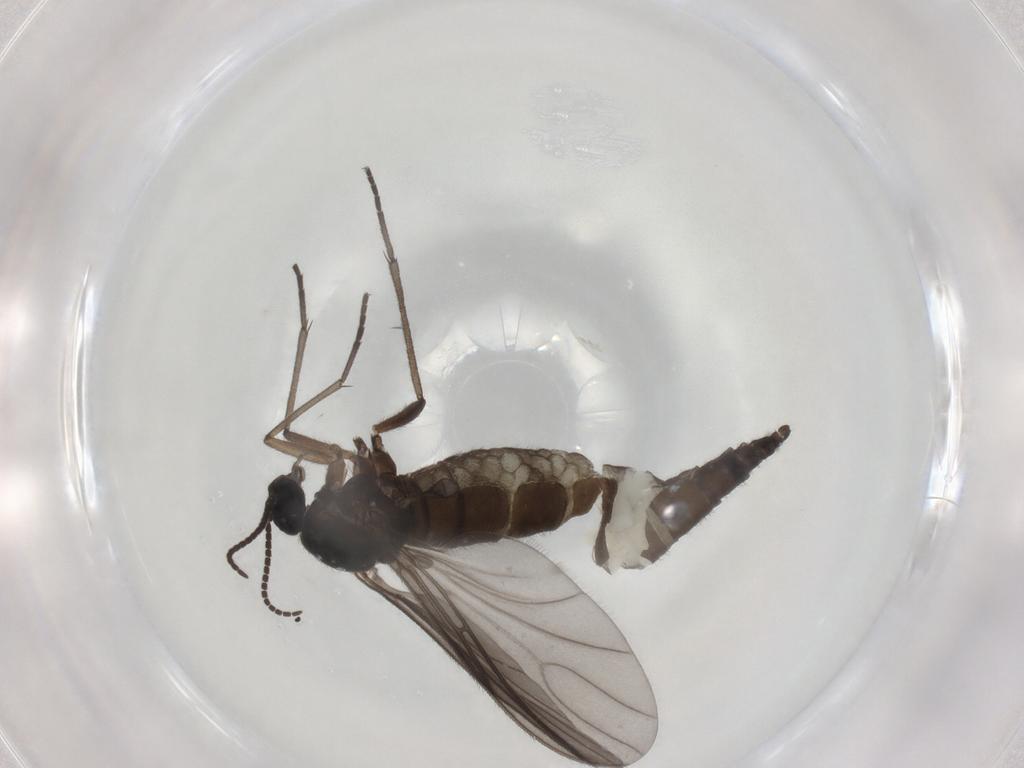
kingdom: Animalia
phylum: Arthropoda
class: Insecta
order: Diptera
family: Sciaridae
